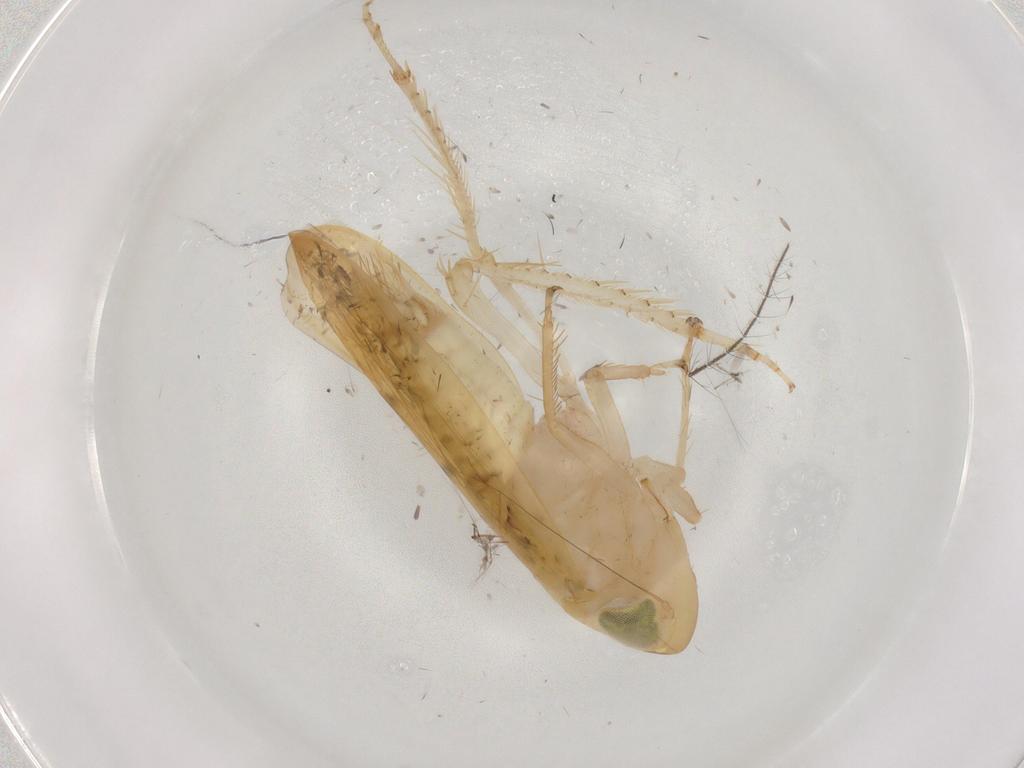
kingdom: Animalia
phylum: Arthropoda
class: Insecta
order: Hemiptera
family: Cicadellidae
